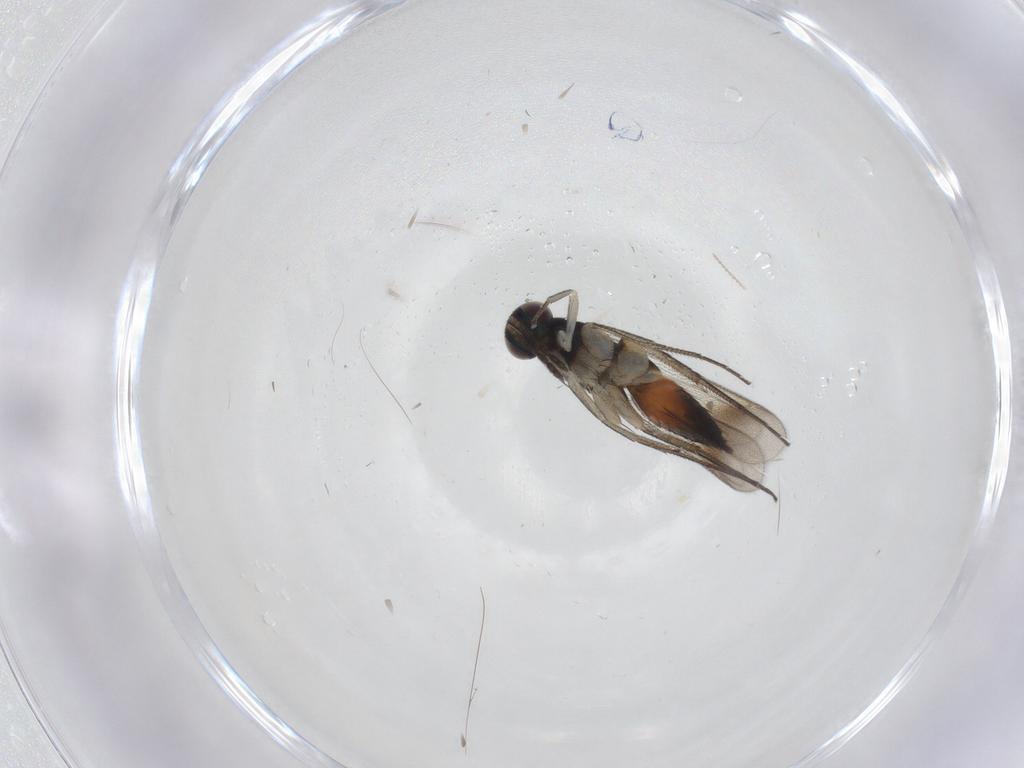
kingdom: Animalia
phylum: Arthropoda
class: Insecta
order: Hymenoptera
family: Eulophidae
